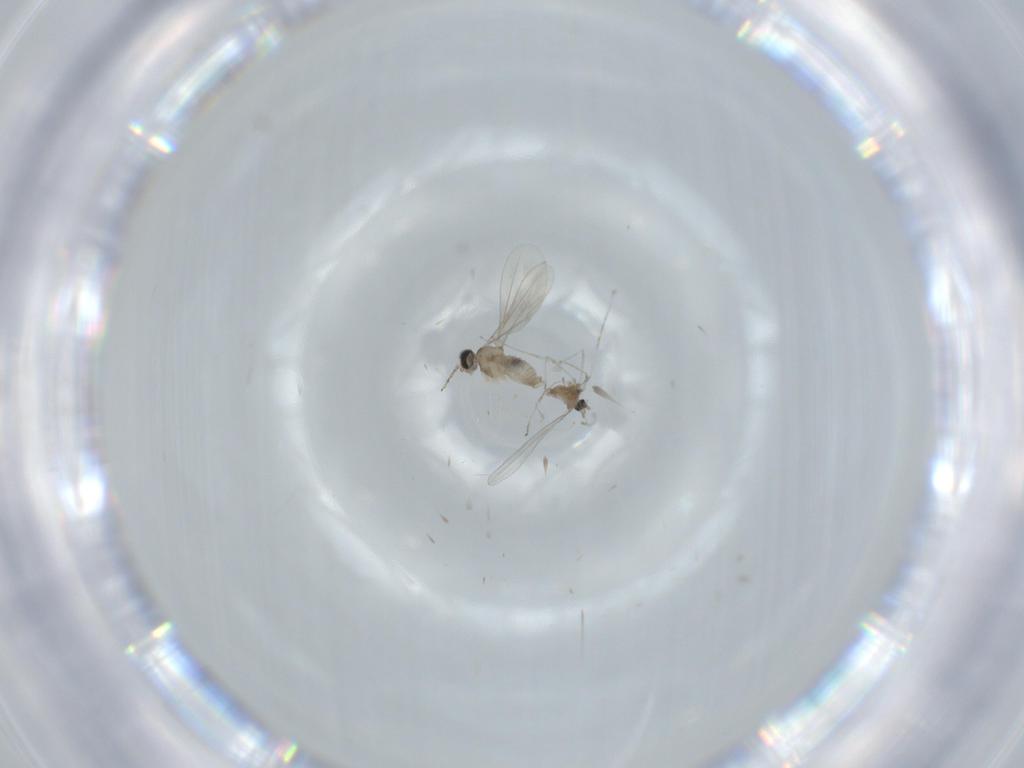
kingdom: Animalia
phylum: Arthropoda
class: Insecta
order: Diptera
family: Cecidomyiidae
